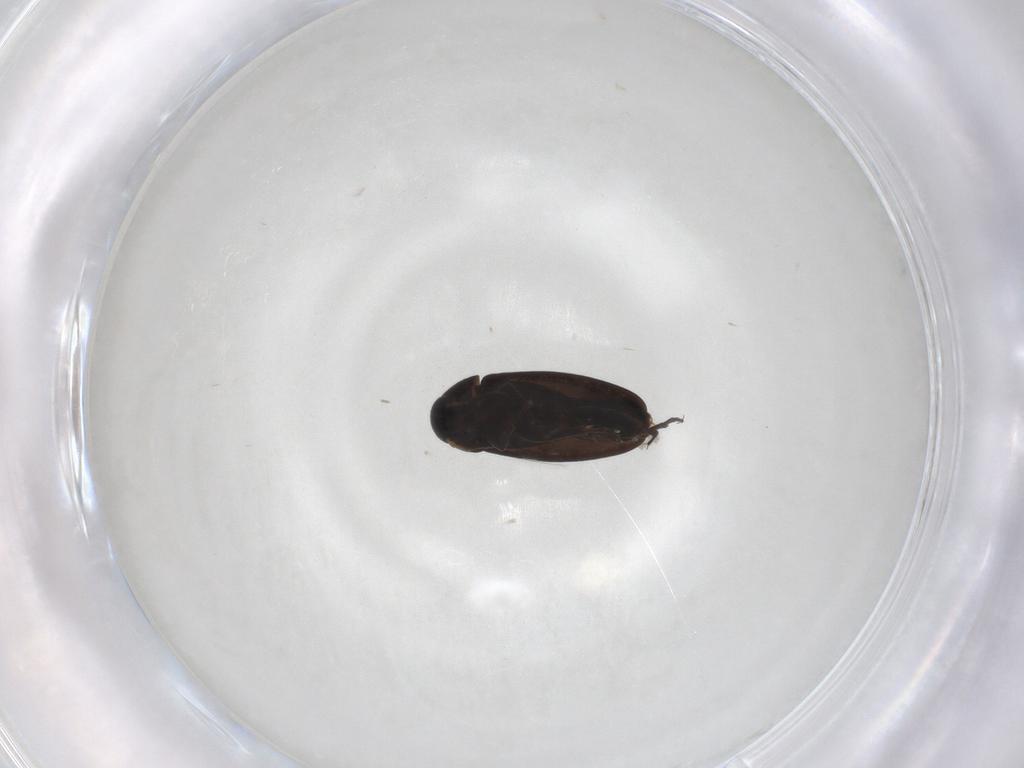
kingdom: Animalia
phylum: Arthropoda
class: Insecta
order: Coleoptera
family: Scraptiidae
